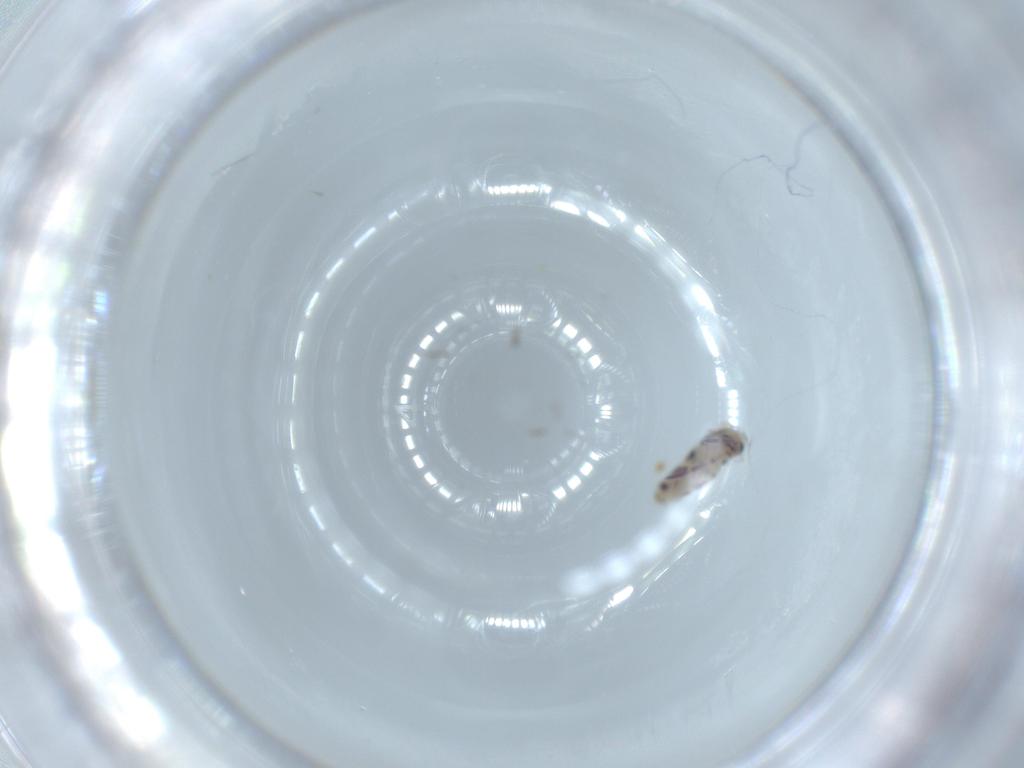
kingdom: Animalia
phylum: Arthropoda
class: Collembola
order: Entomobryomorpha
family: Entomobryidae
